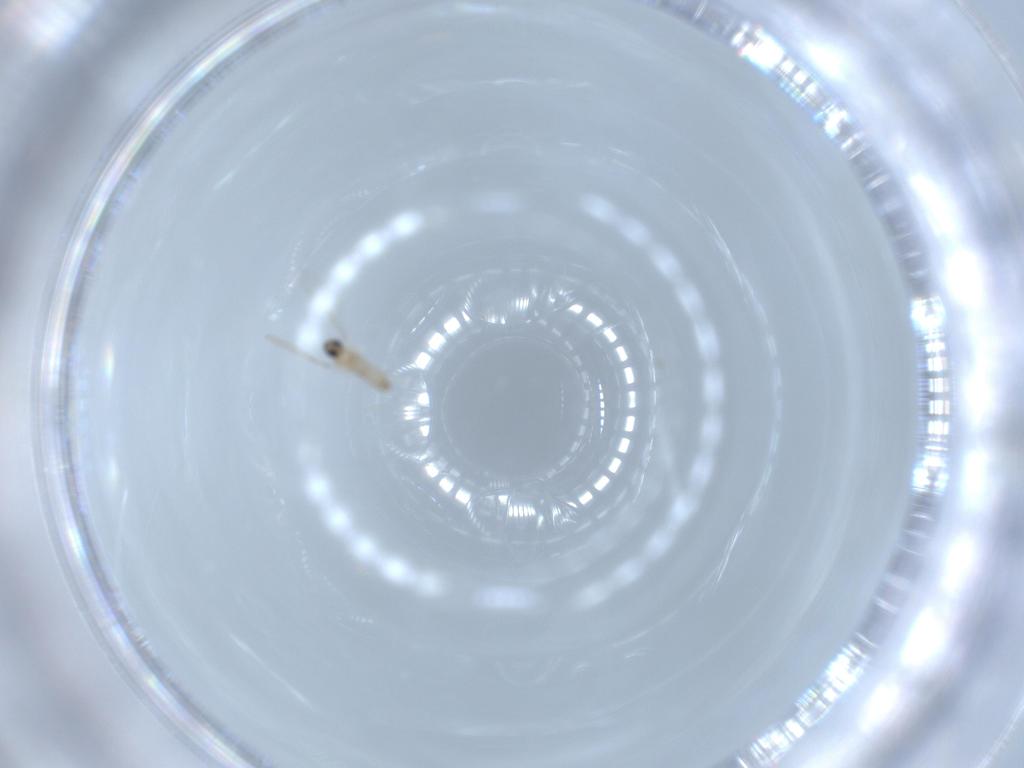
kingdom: Animalia
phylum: Arthropoda
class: Insecta
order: Diptera
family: Cecidomyiidae
